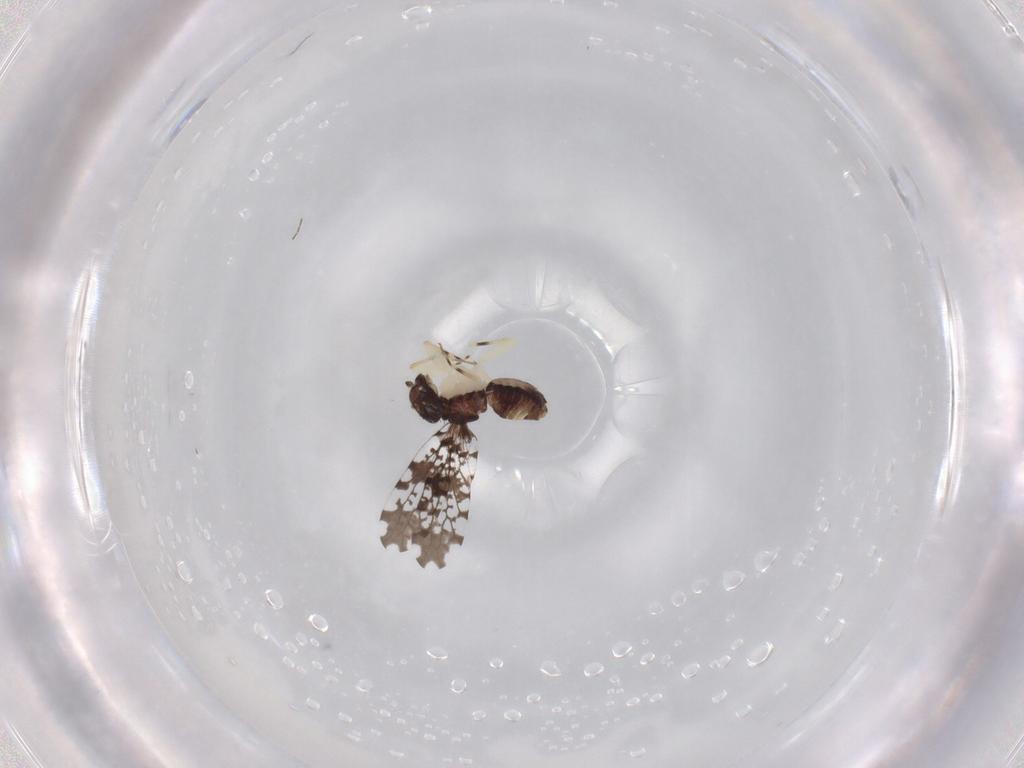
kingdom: Animalia
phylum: Arthropoda
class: Insecta
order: Psocodea
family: Psoquillidae
